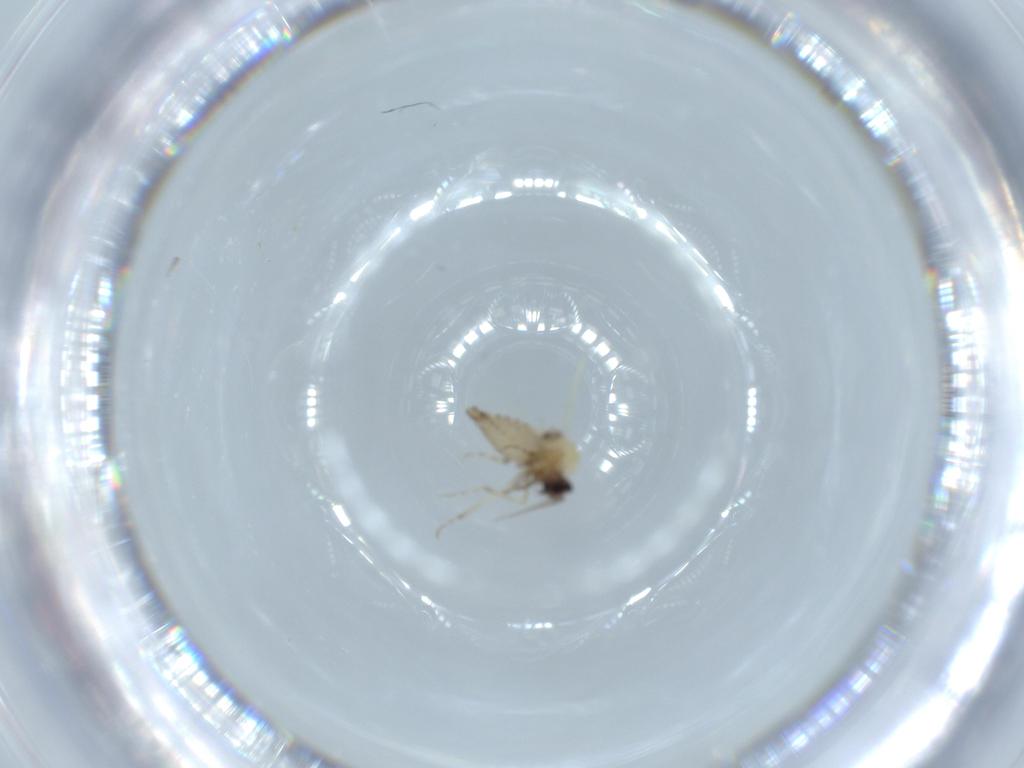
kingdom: Animalia
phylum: Arthropoda
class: Insecta
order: Diptera
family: Ceratopogonidae
